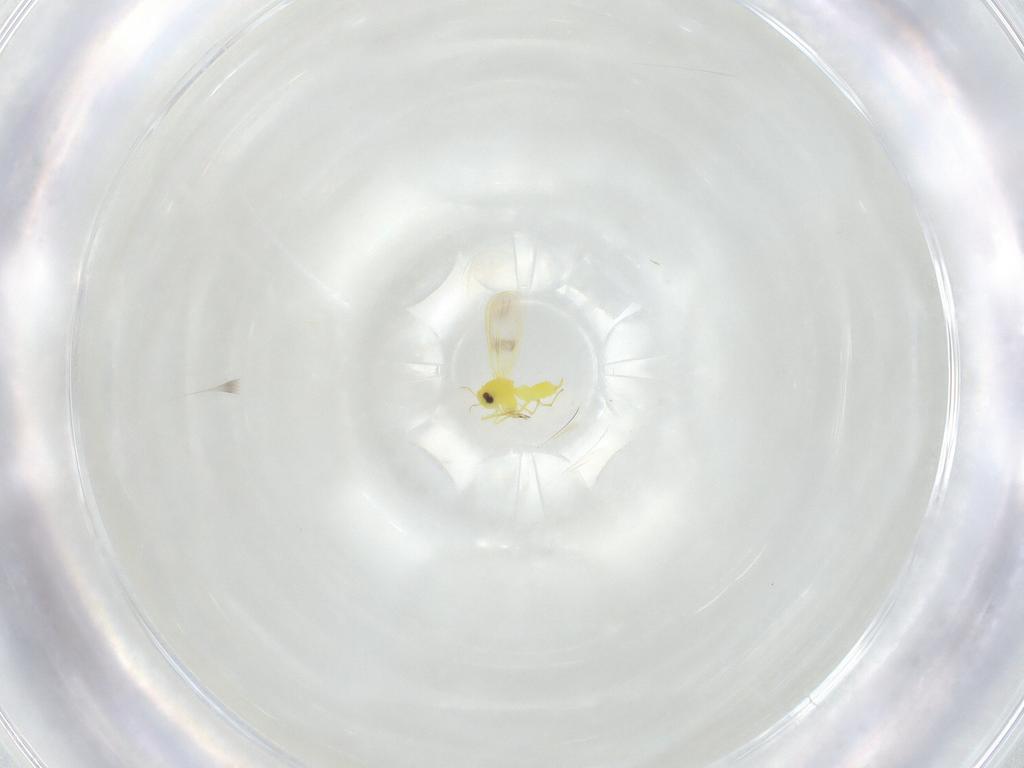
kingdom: Animalia
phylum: Arthropoda
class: Insecta
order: Hemiptera
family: Aleyrodidae
